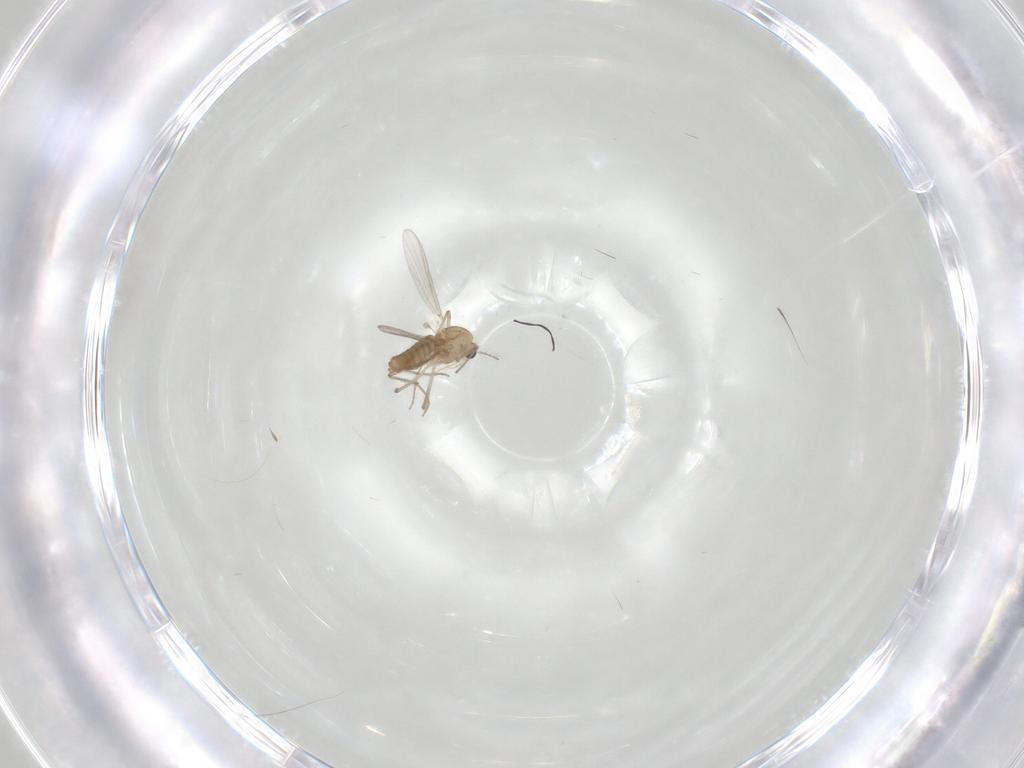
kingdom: Animalia
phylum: Arthropoda
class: Insecta
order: Diptera
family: Chironomidae
